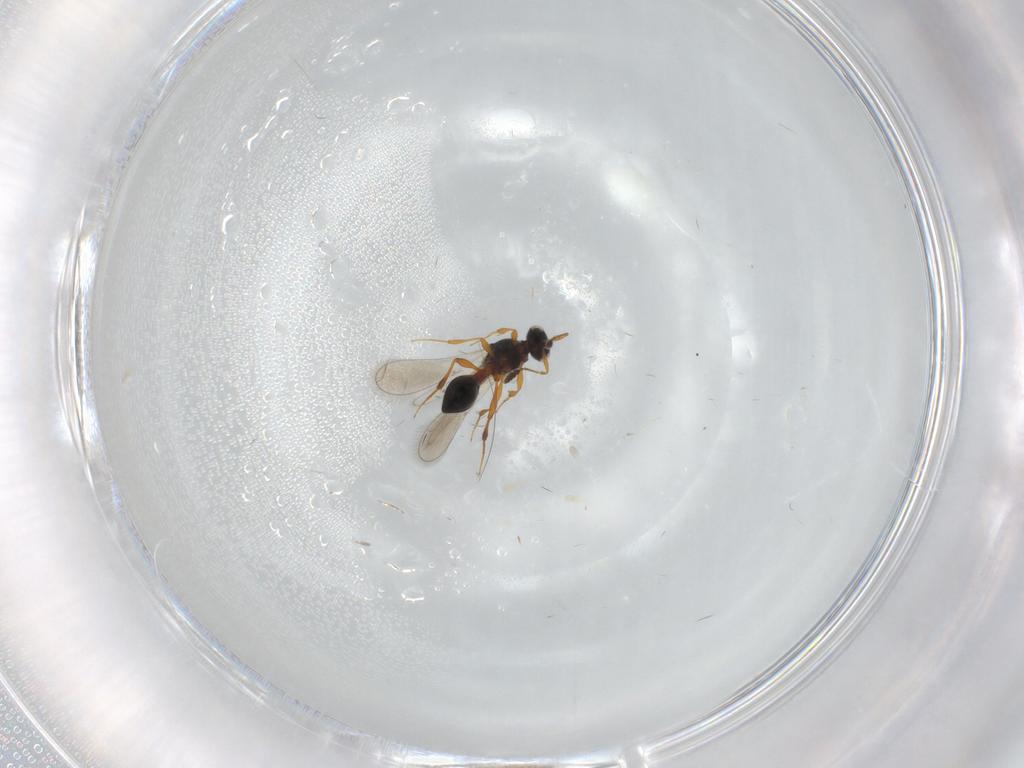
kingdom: Animalia
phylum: Arthropoda
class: Insecta
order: Hymenoptera
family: Platygastridae
